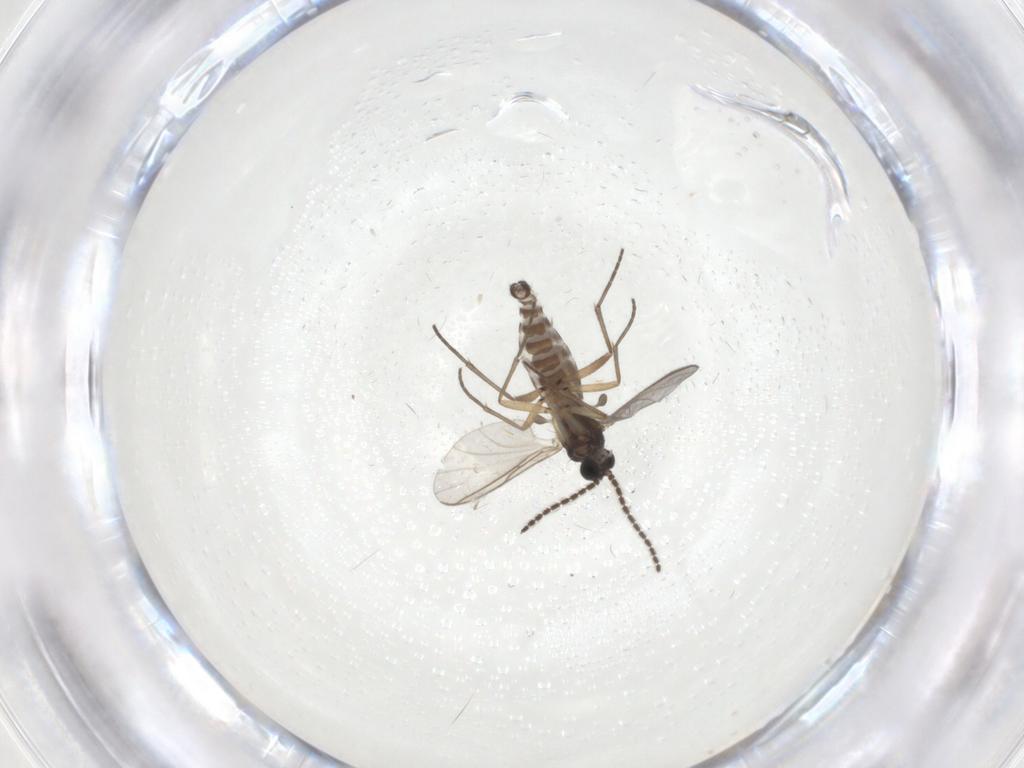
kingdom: Animalia
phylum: Arthropoda
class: Insecta
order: Diptera
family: Sciaridae
